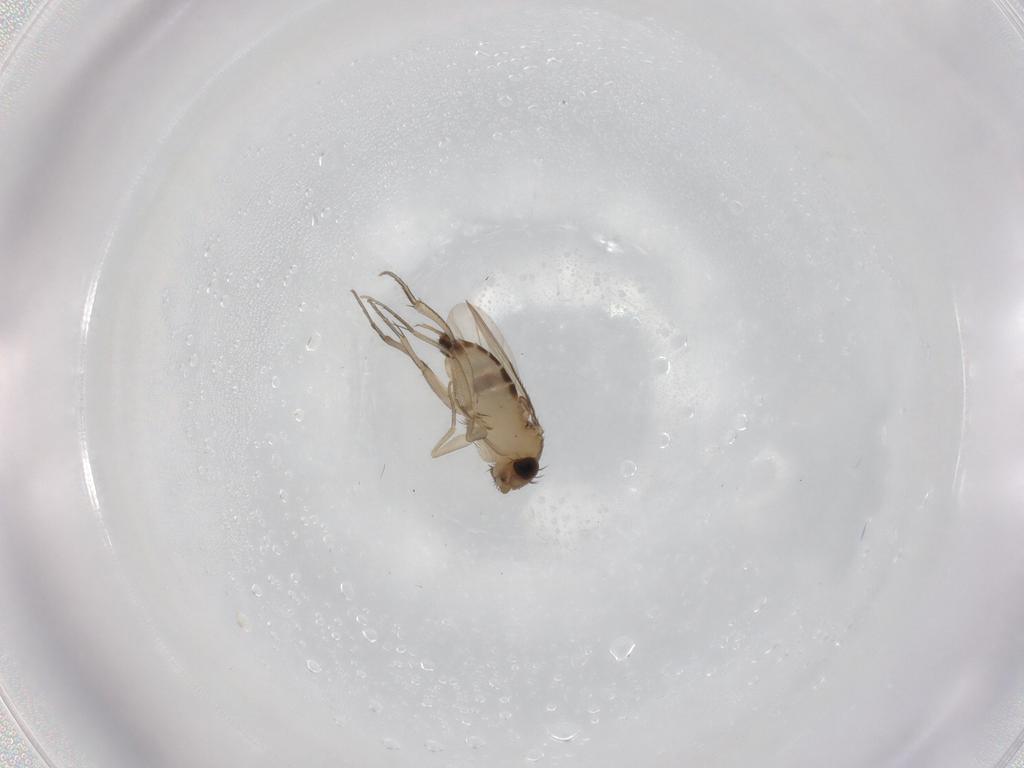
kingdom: Animalia
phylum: Arthropoda
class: Insecta
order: Diptera
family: Phoridae
